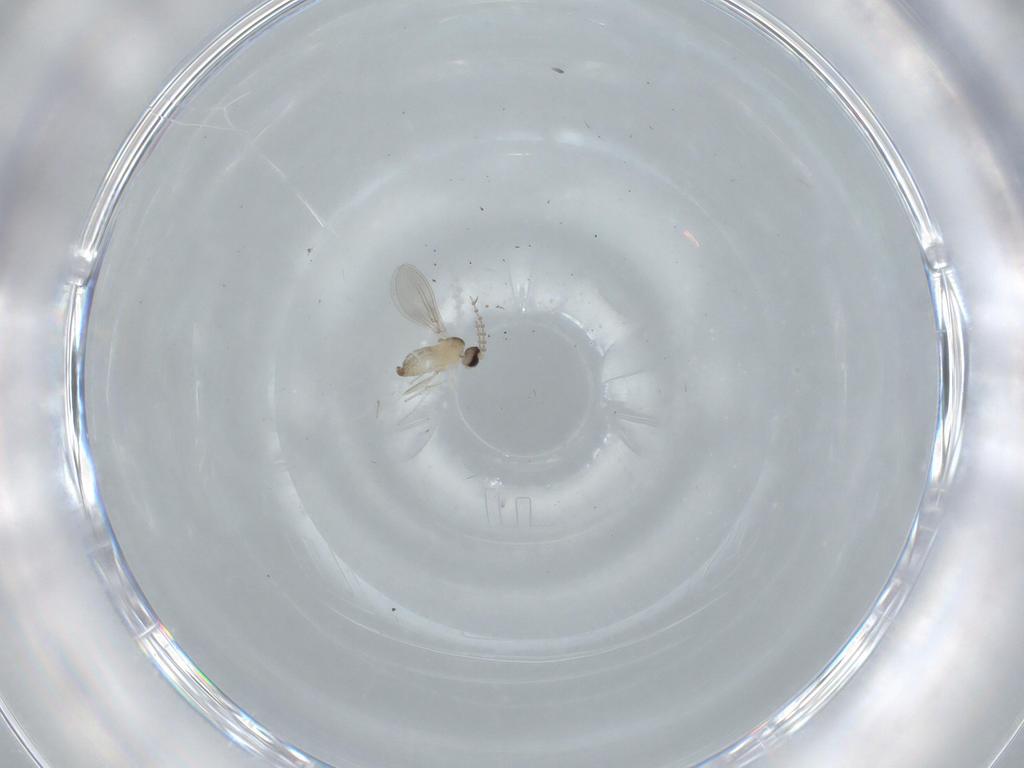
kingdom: Animalia
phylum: Arthropoda
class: Insecta
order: Diptera
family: Cecidomyiidae
